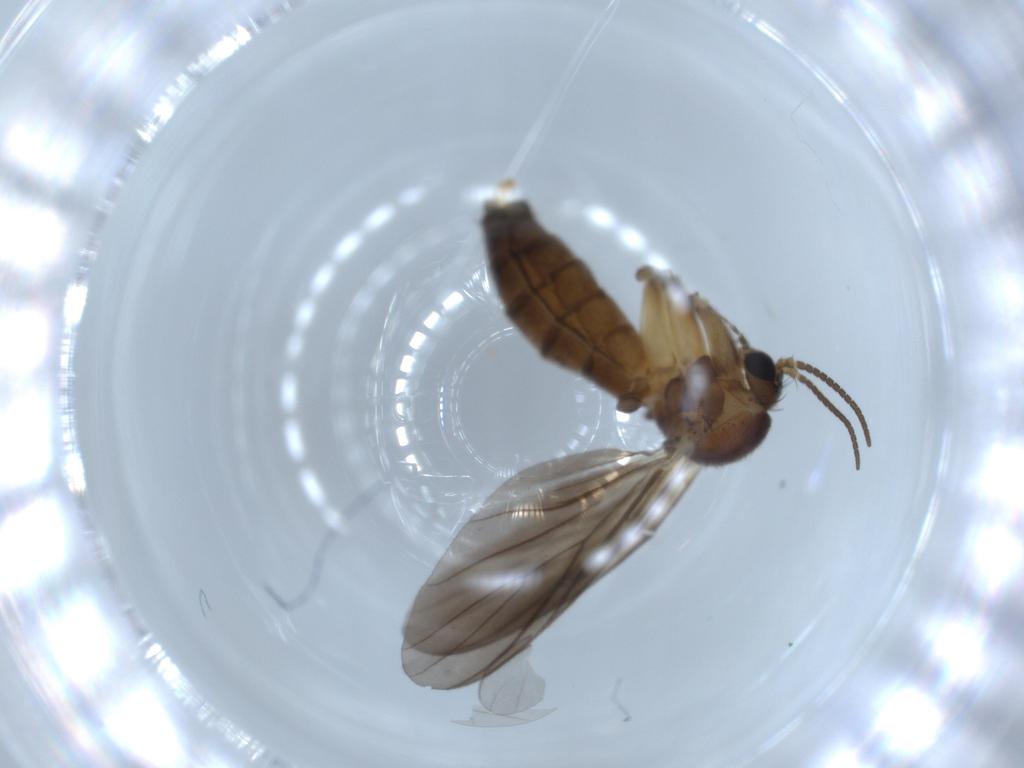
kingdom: Animalia
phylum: Arthropoda
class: Insecta
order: Diptera
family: Mycetophilidae
